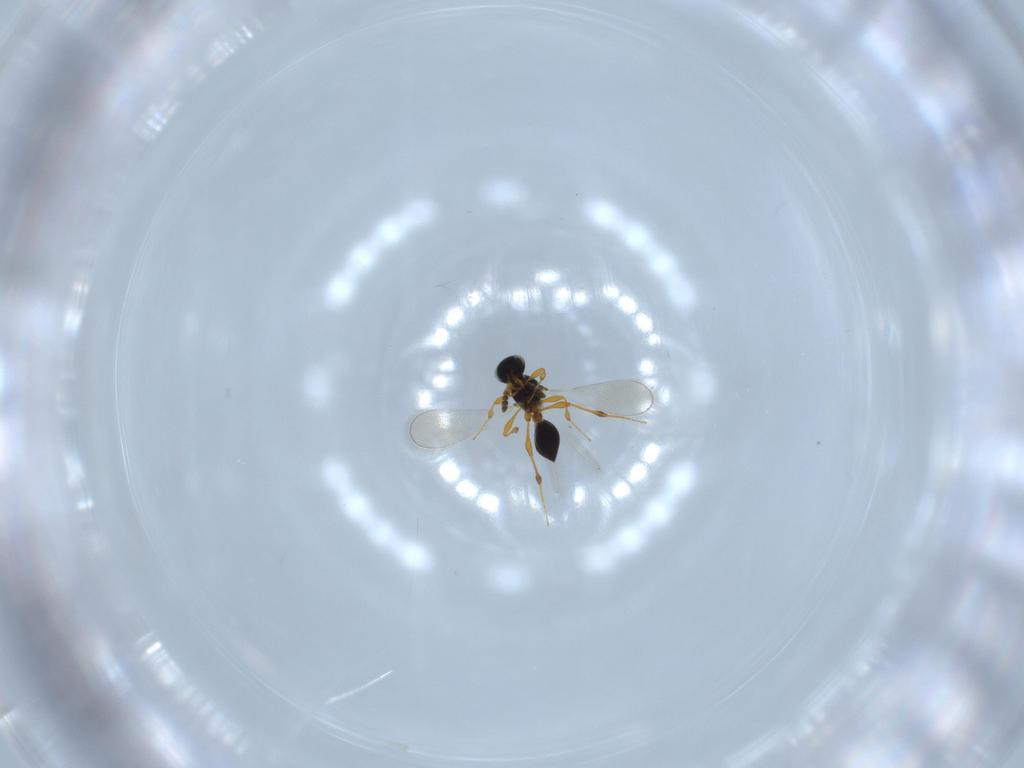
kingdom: Animalia
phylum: Arthropoda
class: Insecta
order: Hymenoptera
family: Platygastridae
